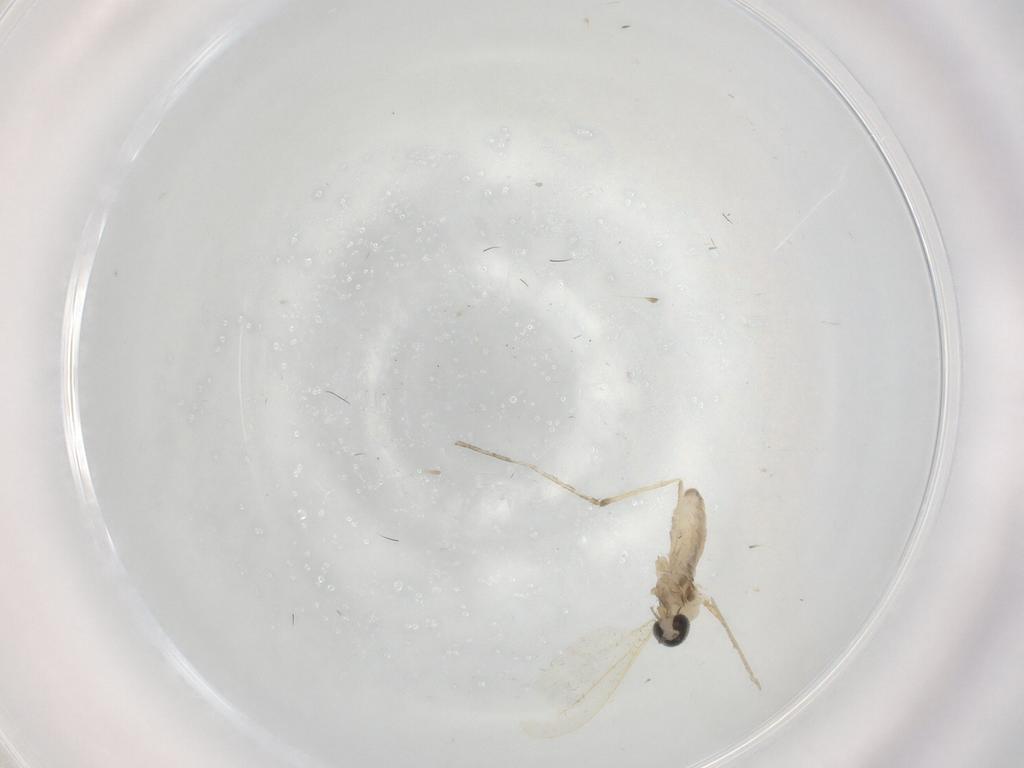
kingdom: Animalia
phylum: Arthropoda
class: Insecta
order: Diptera
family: Cecidomyiidae
